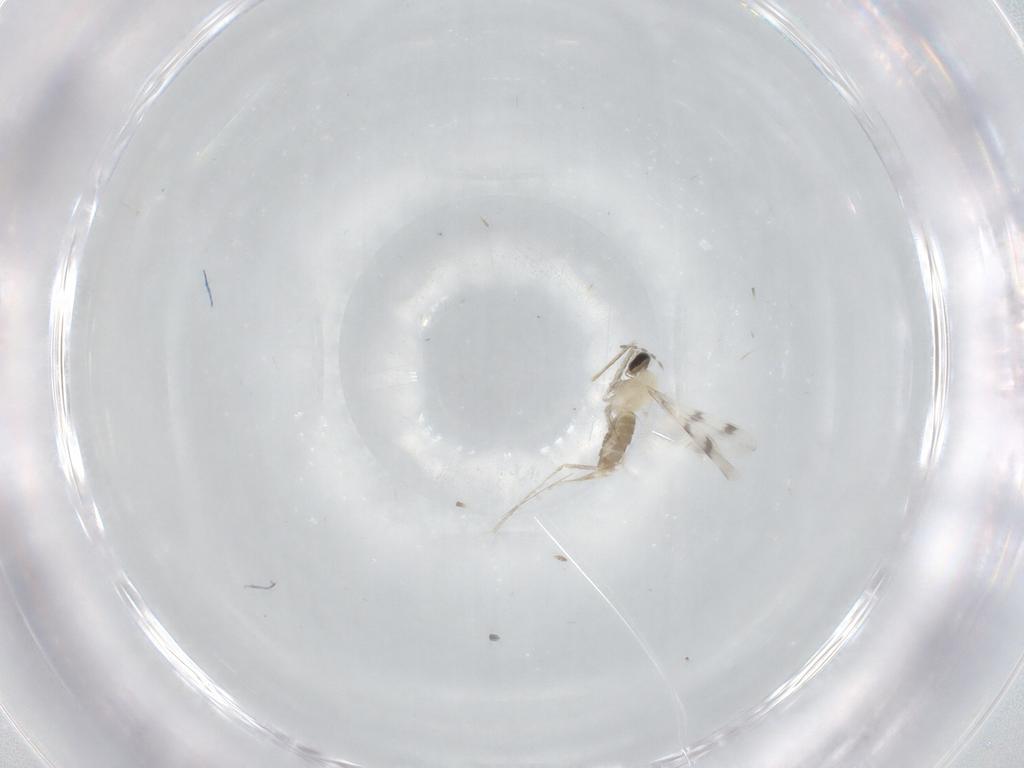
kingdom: Animalia
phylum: Arthropoda
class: Insecta
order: Diptera
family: Cecidomyiidae
